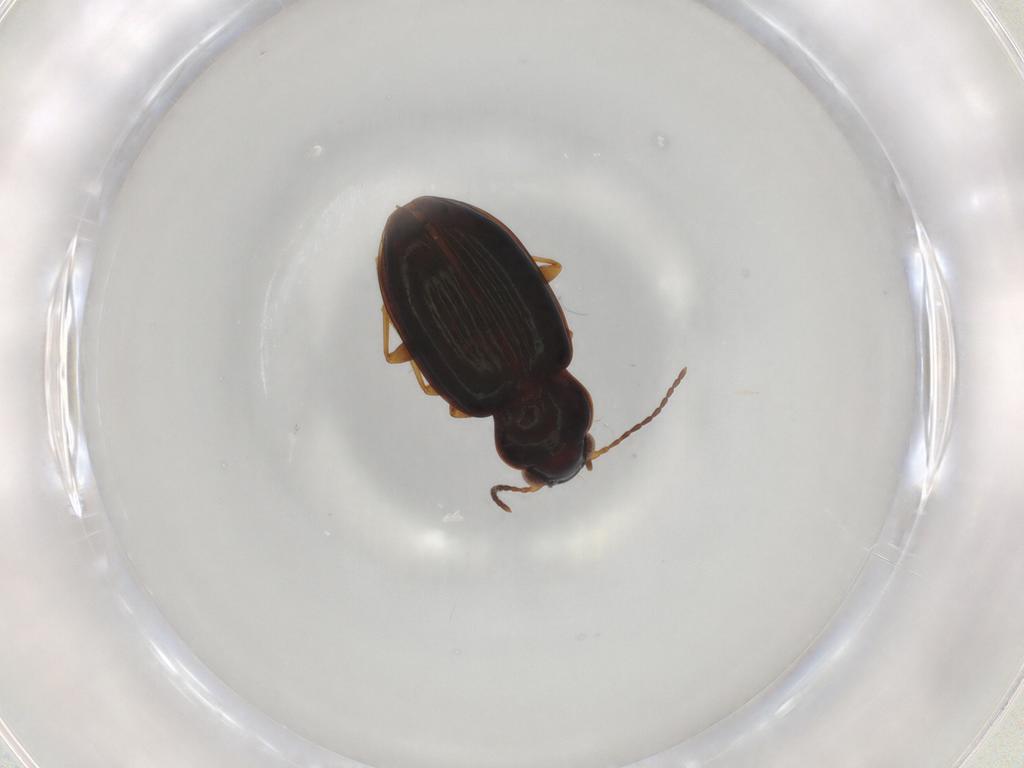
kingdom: Animalia
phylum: Arthropoda
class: Insecta
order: Coleoptera
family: Carabidae
